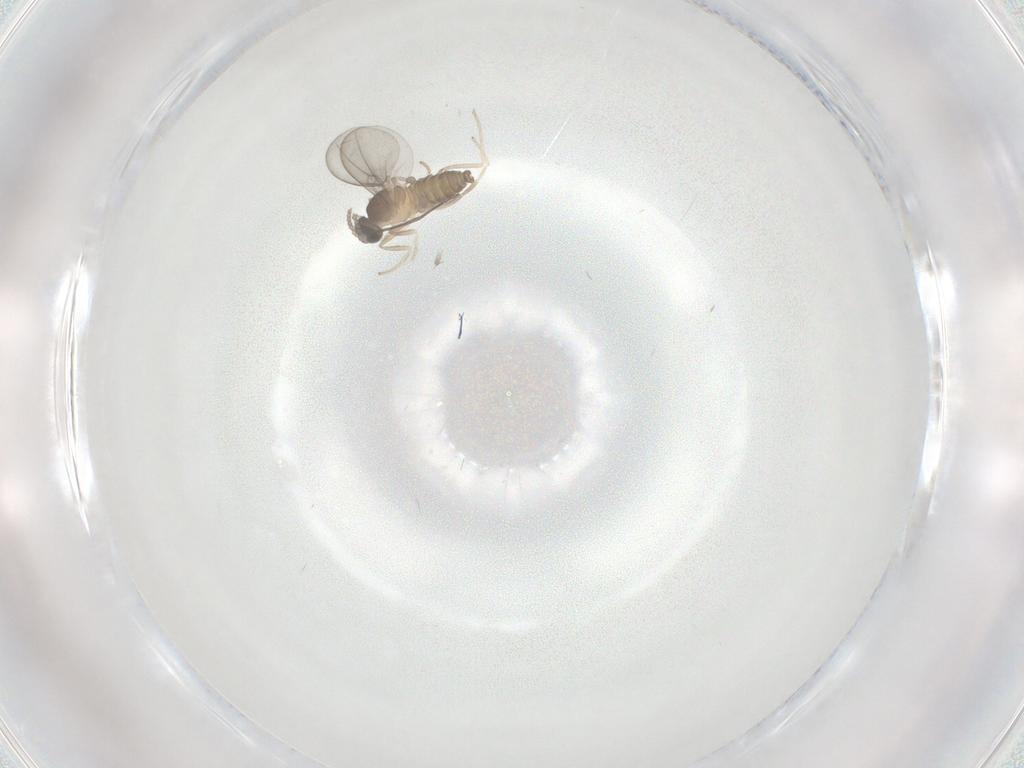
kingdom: Animalia
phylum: Arthropoda
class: Insecta
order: Diptera
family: Cecidomyiidae
